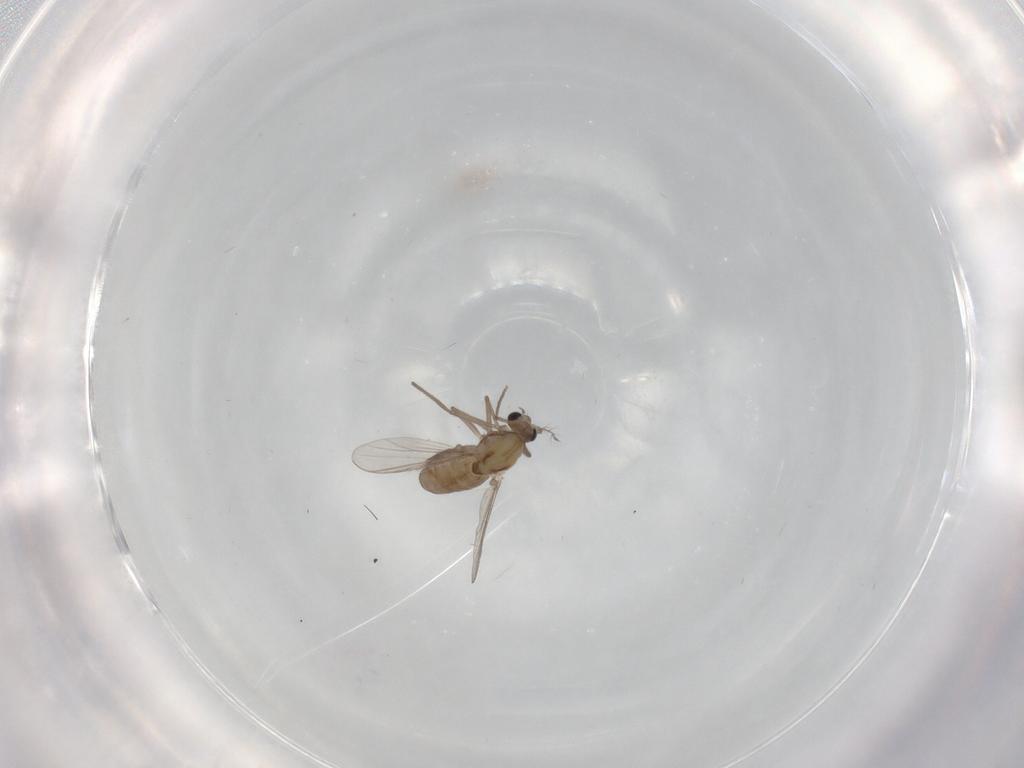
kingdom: Animalia
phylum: Arthropoda
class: Insecta
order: Diptera
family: Chironomidae
